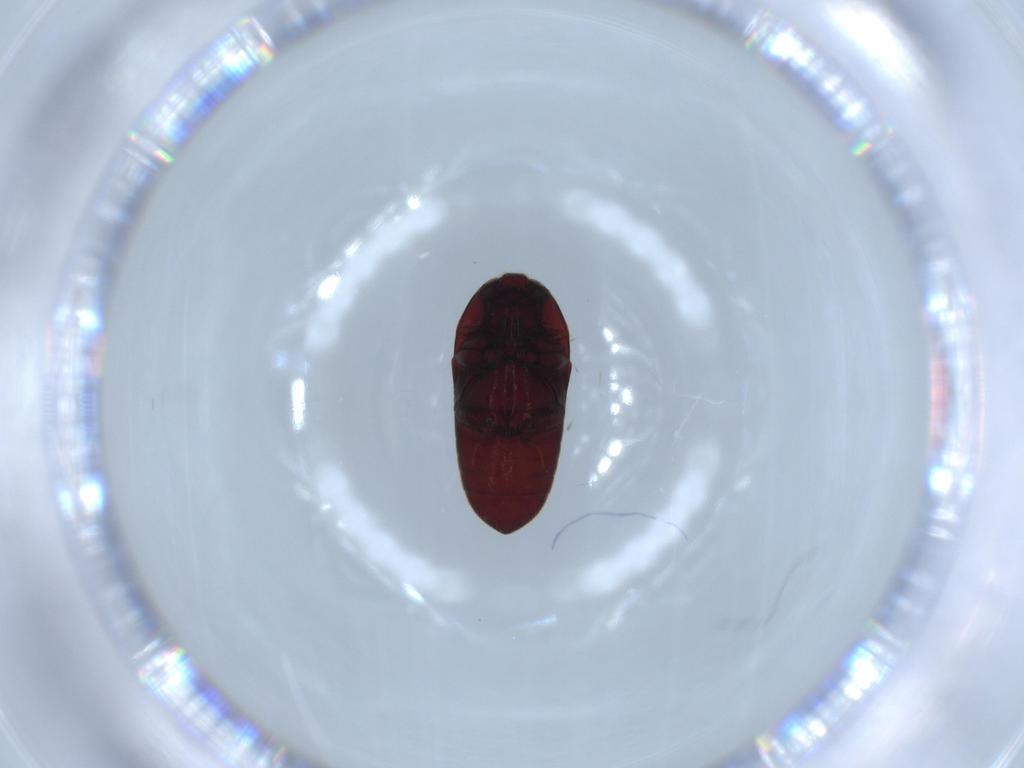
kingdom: Animalia
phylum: Arthropoda
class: Insecta
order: Coleoptera
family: Throscidae
